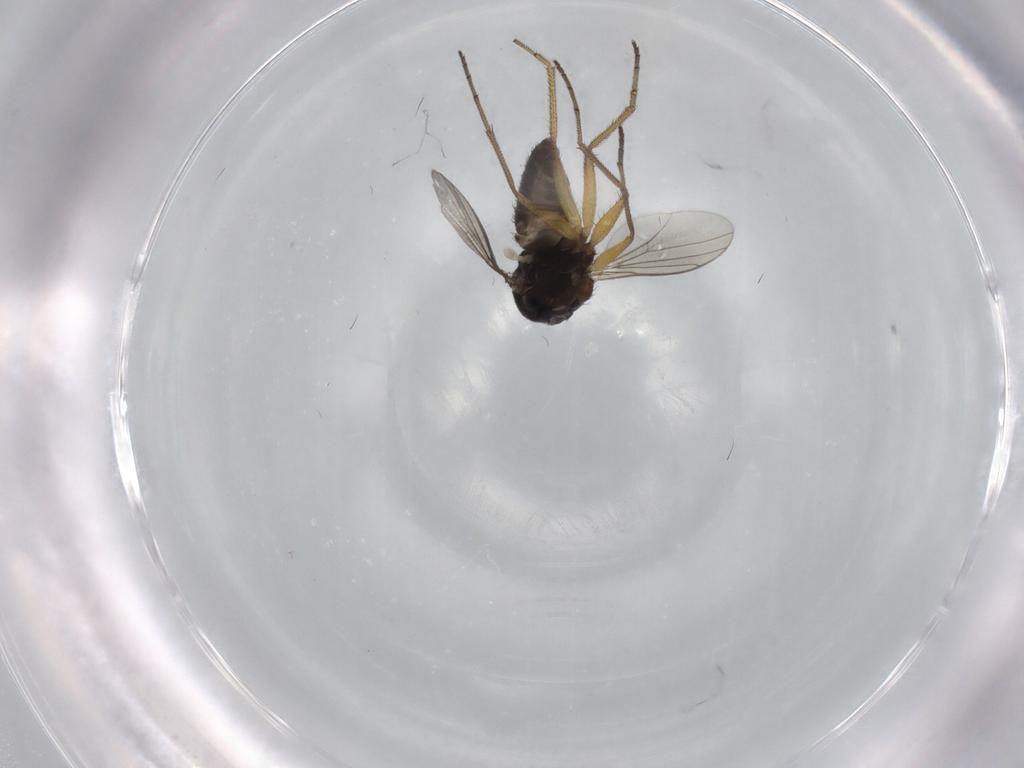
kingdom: Animalia
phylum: Arthropoda
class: Insecta
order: Diptera
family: Dolichopodidae
